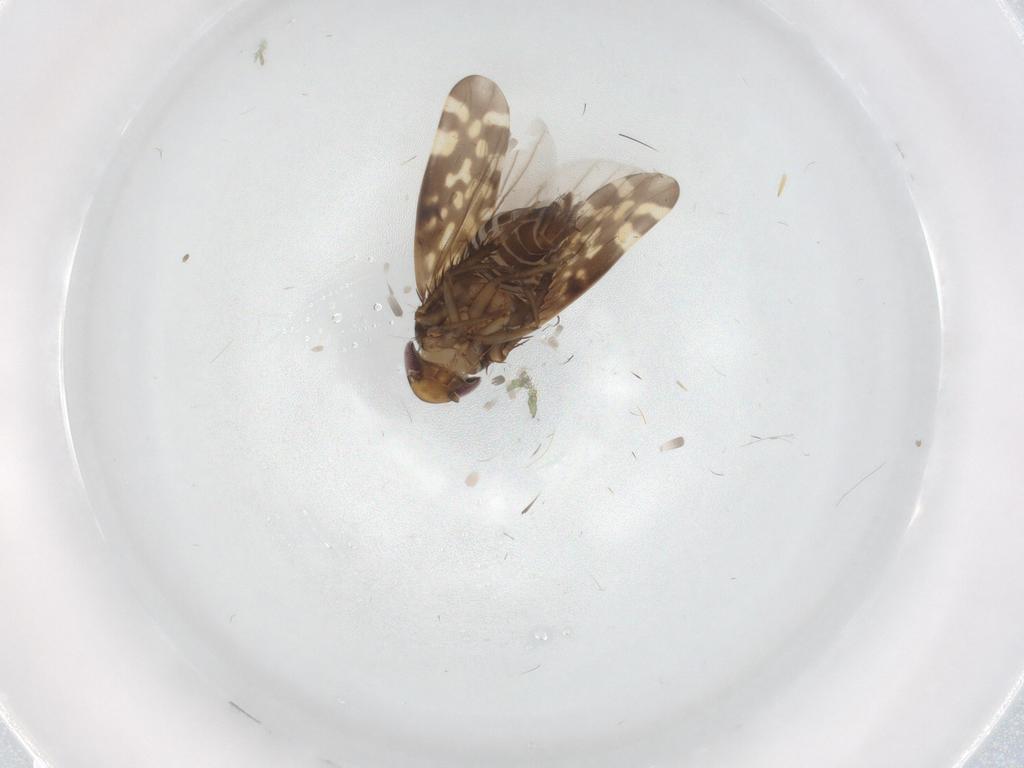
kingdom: Animalia
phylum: Arthropoda
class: Insecta
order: Hemiptera
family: Cicadellidae
